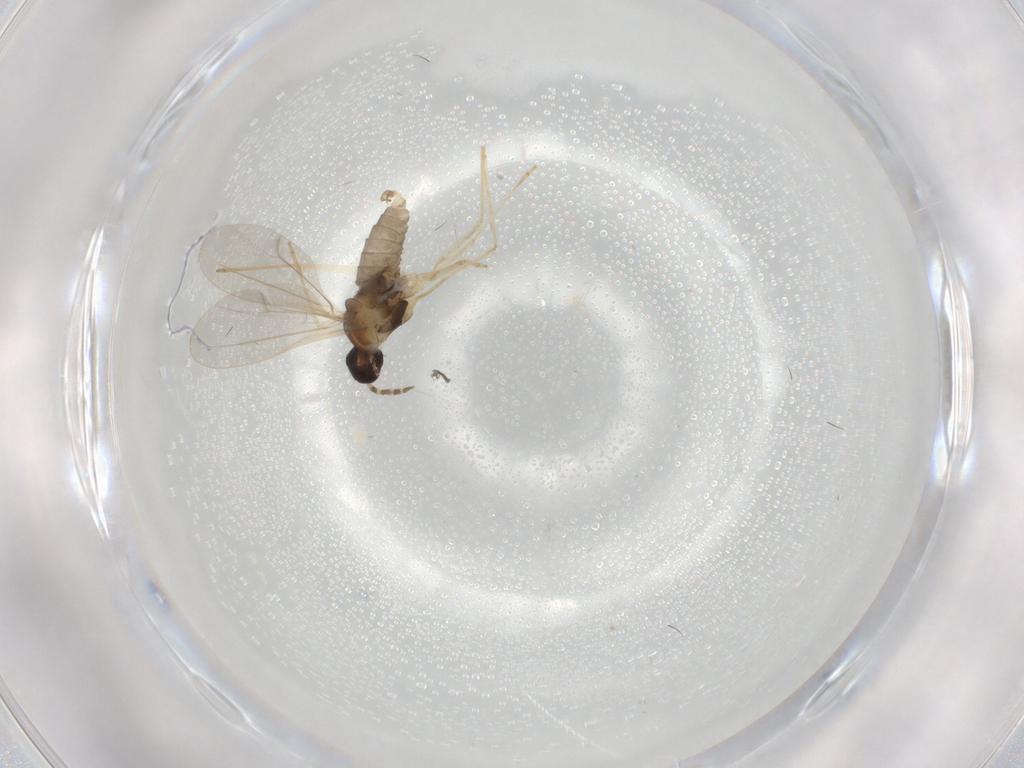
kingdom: Animalia
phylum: Arthropoda
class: Insecta
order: Diptera
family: Cecidomyiidae
